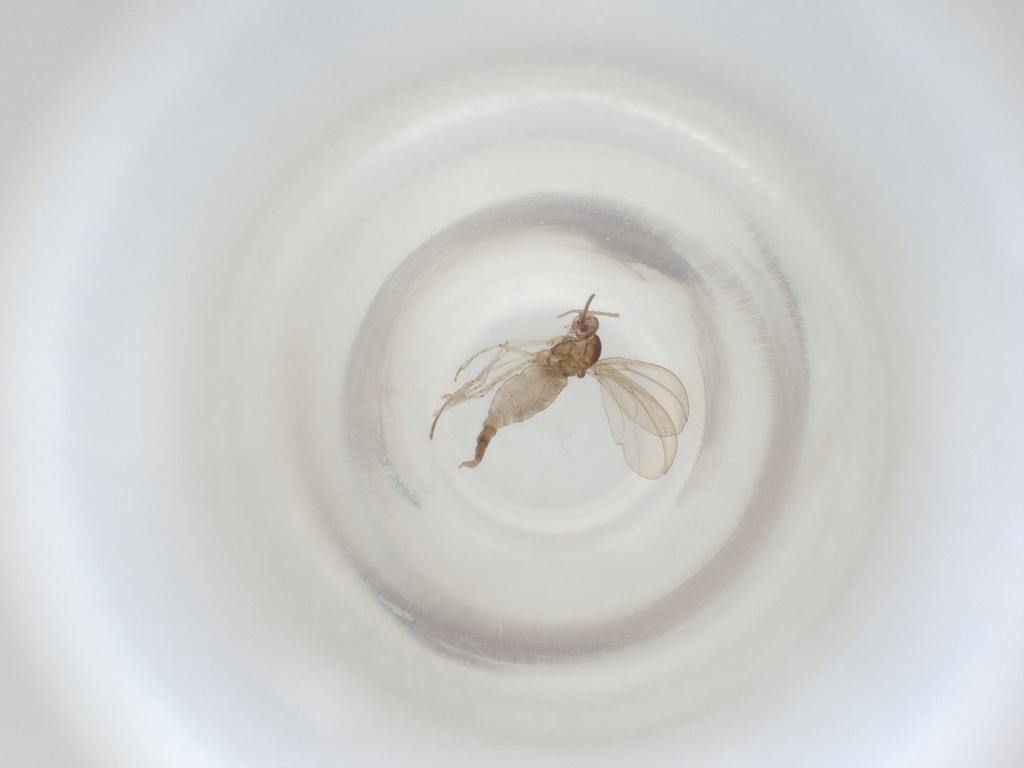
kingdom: Animalia
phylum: Arthropoda
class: Insecta
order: Diptera
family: Cecidomyiidae
